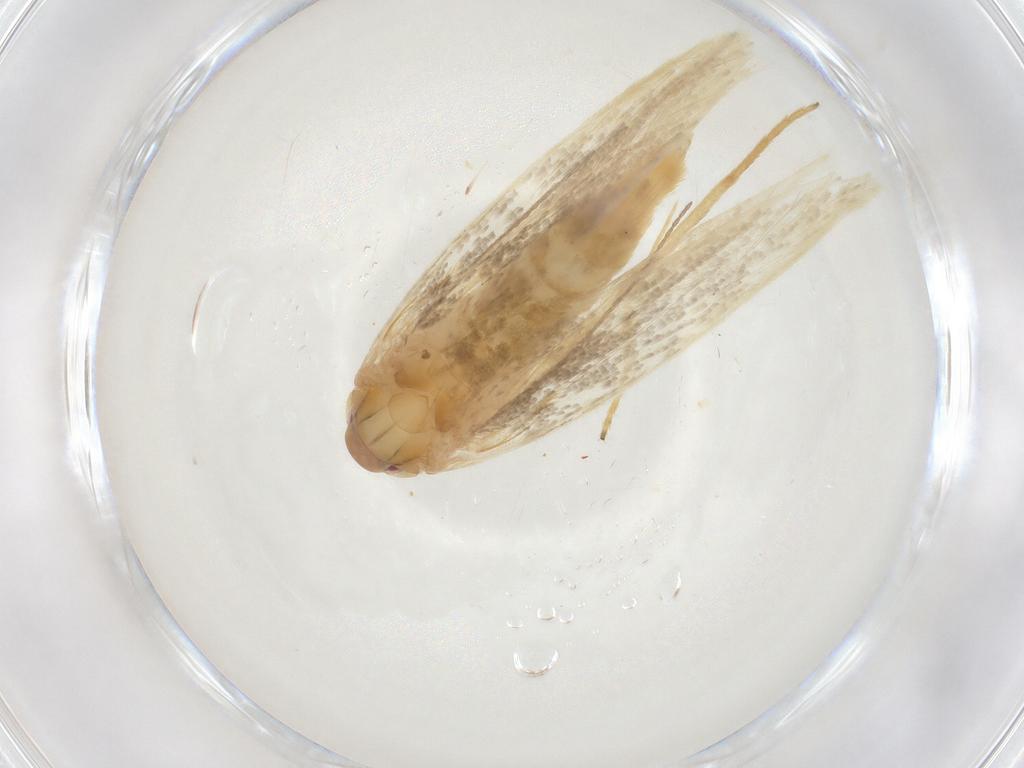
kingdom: Animalia
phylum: Arthropoda
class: Insecta
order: Lepidoptera
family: Cosmopterigidae
